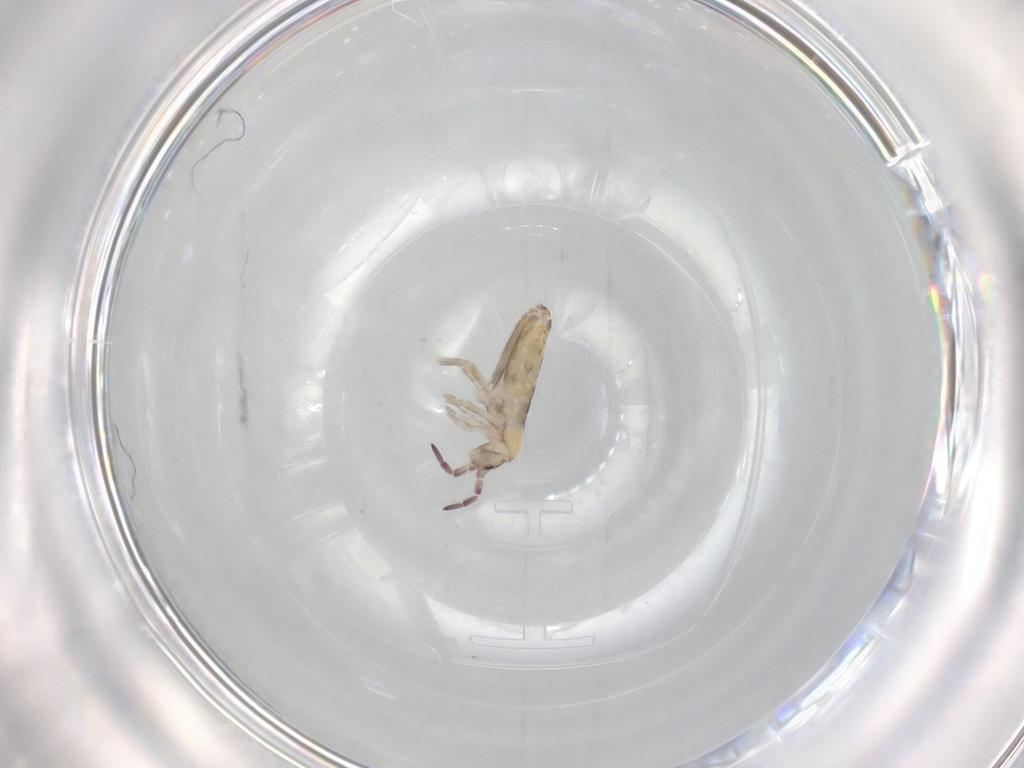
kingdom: Animalia
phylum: Arthropoda
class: Collembola
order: Entomobryomorpha
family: Entomobryidae
